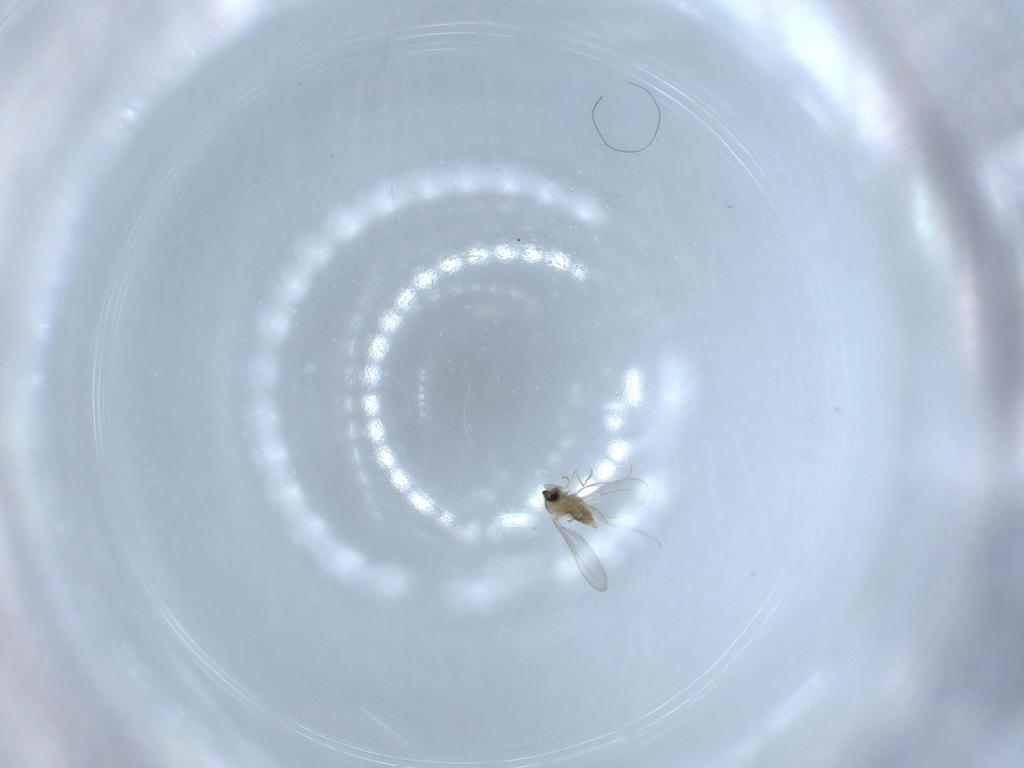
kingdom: Animalia
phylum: Arthropoda
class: Insecta
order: Diptera
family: Cecidomyiidae
